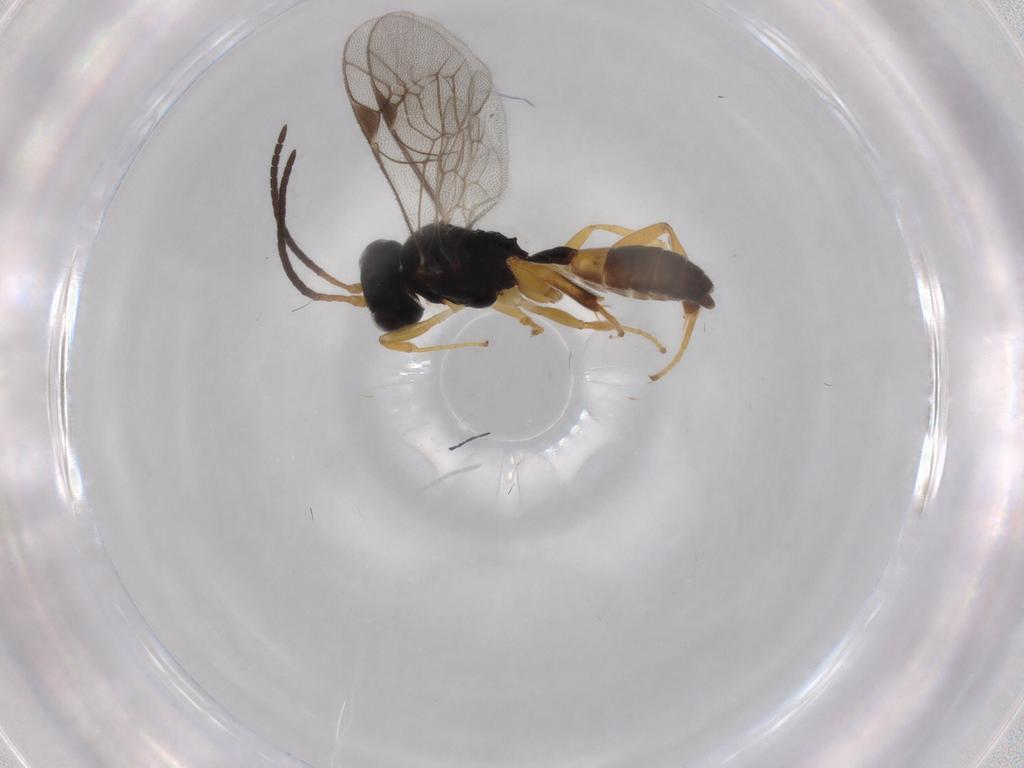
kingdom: Animalia
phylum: Arthropoda
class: Insecta
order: Hymenoptera
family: Ichneumonidae
